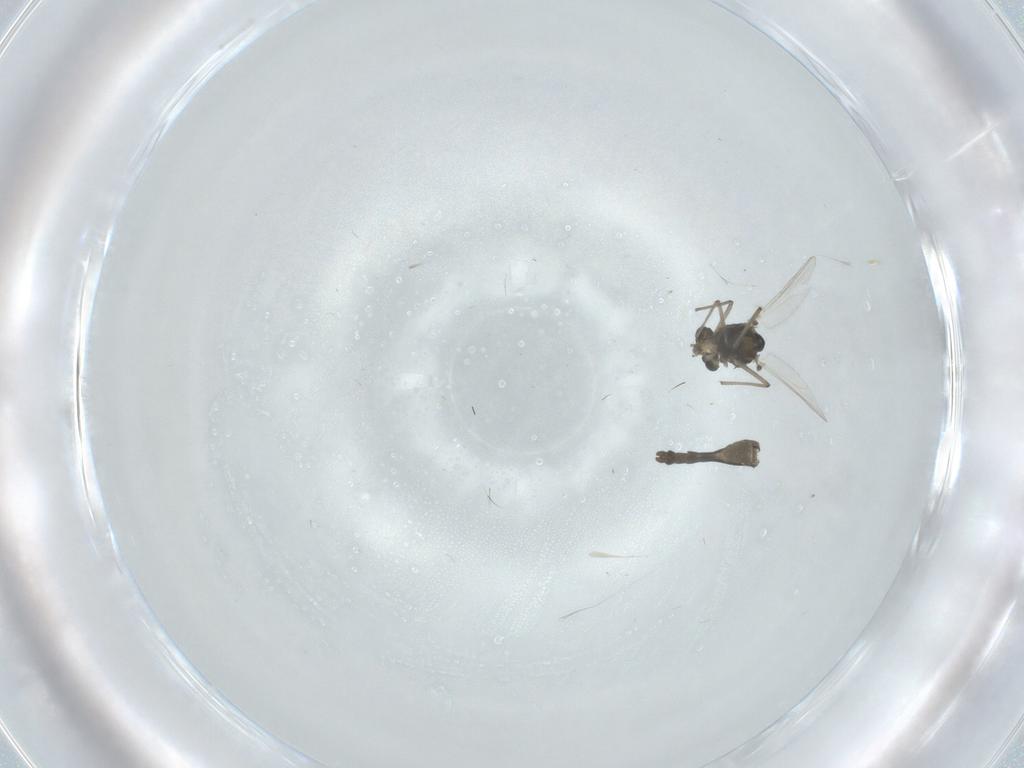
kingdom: Animalia
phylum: Arthropoda
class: Insecta
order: Diptera
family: Chironomidae
